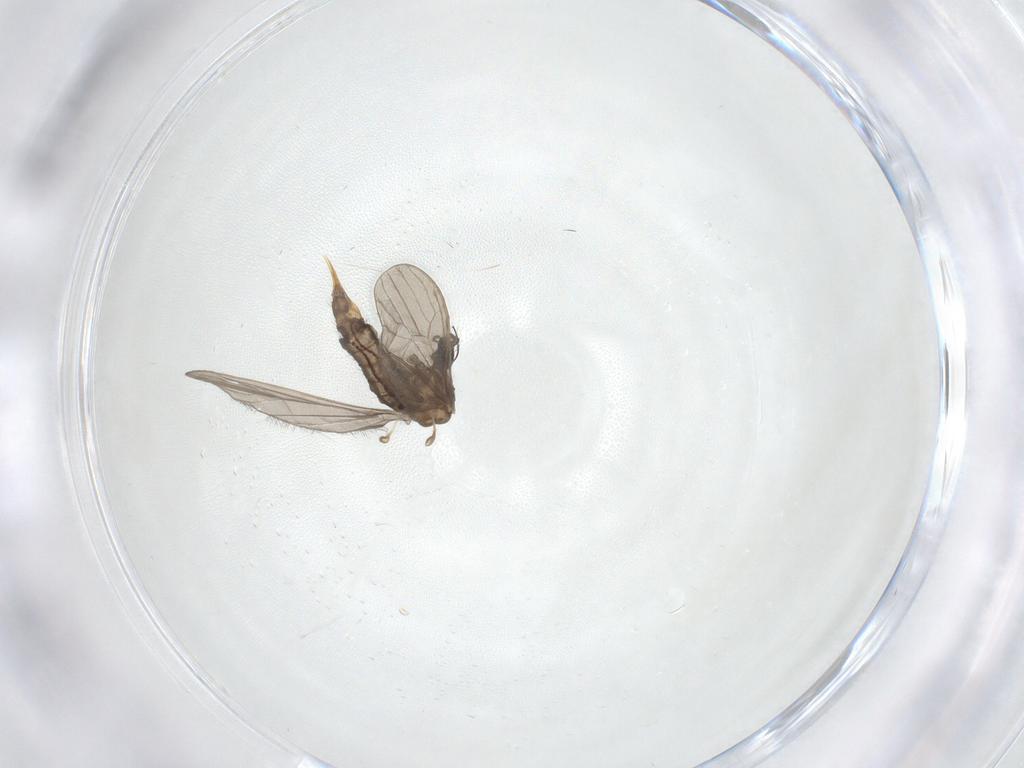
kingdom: Animalia
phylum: Arthropoda
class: Insecta
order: Diptera
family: Limoniidae
